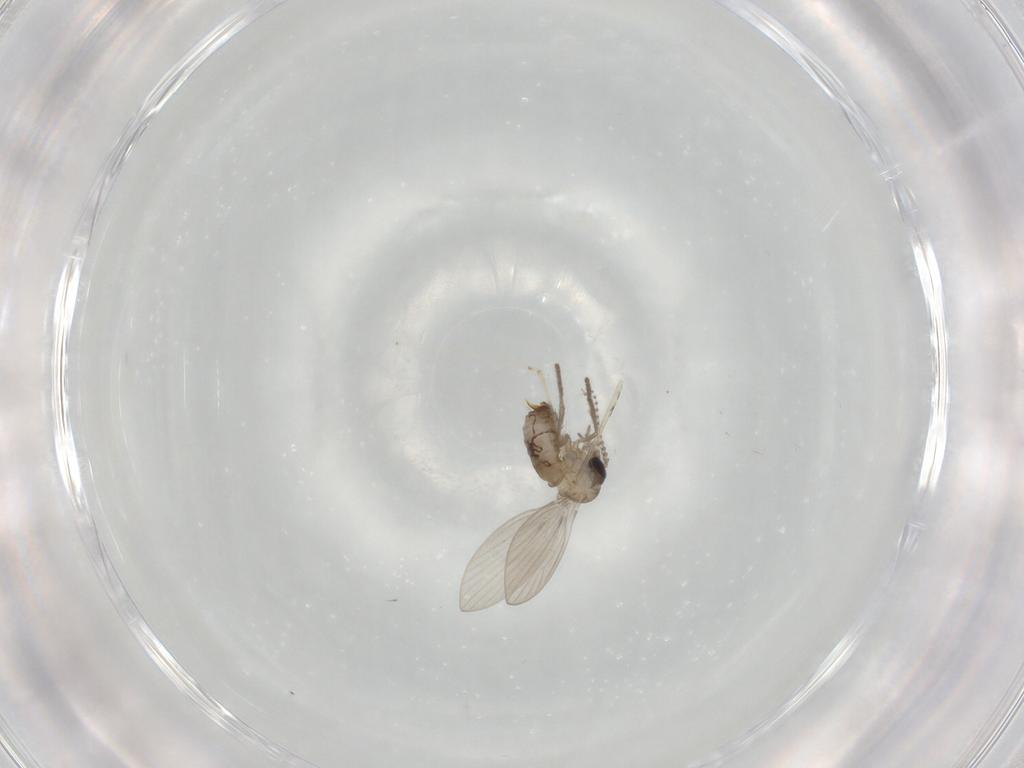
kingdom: Animalia
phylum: Arthropoda
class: Insecta
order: Diptera
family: Psychodidae
